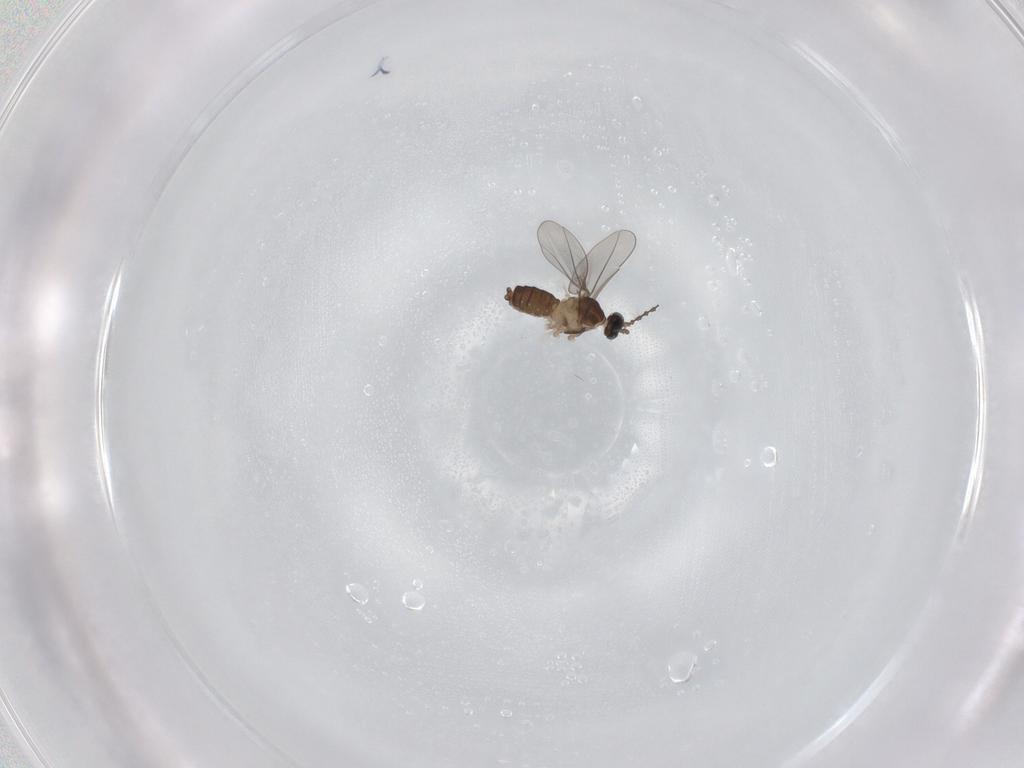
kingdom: Animalia
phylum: Arthropoda
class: Insecta
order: Diptera
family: Cecidomyiidae
